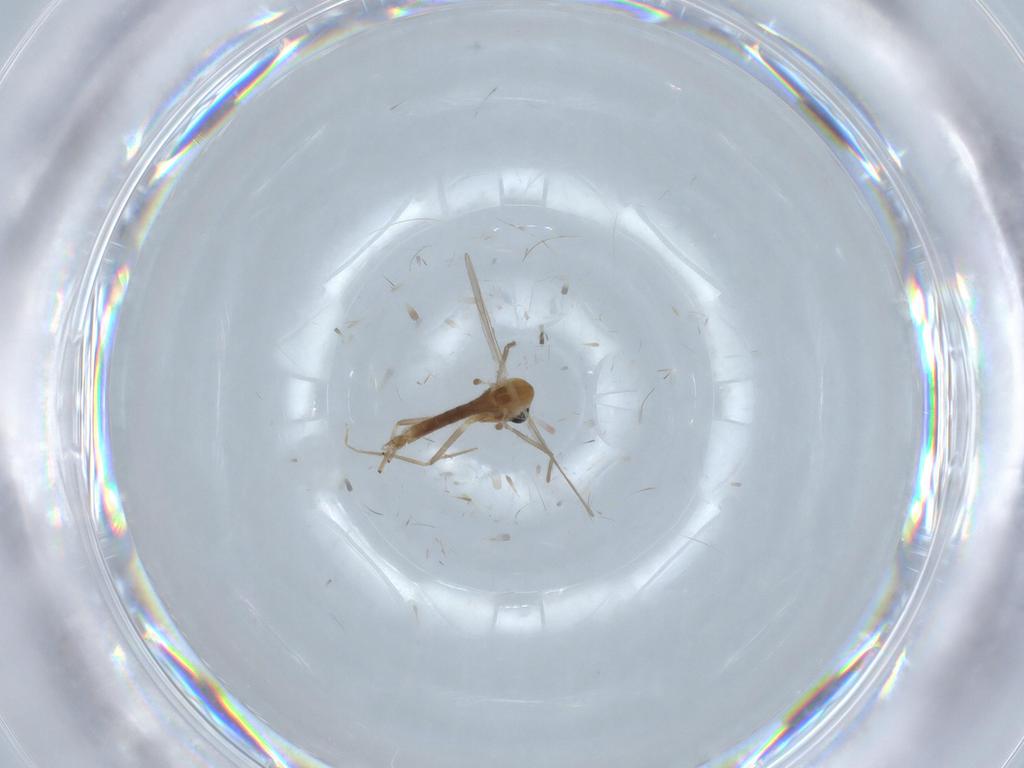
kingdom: Animalia
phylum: Arthropoda
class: Insecta
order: Diptera
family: Chironomidae
